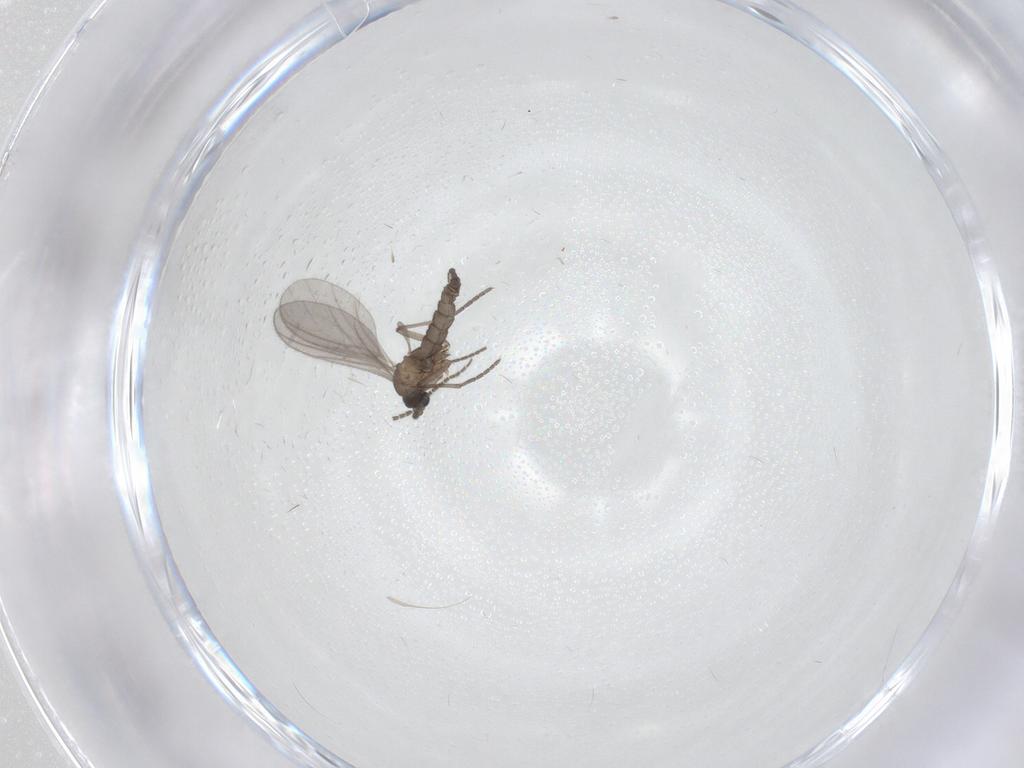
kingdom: Animalia
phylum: Arthropoda
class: Insecta
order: Diptera
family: Sciaridae
